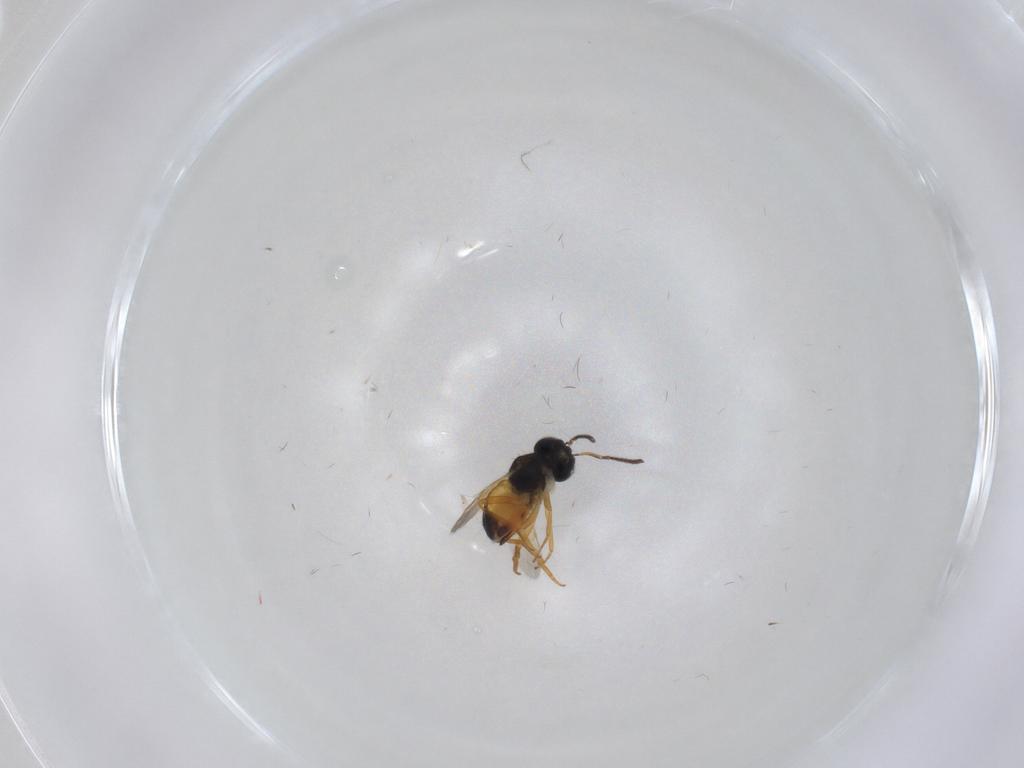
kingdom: Animalia
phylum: Arthropoda
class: Insecta
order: Hymenoptera
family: Encyrtidae
